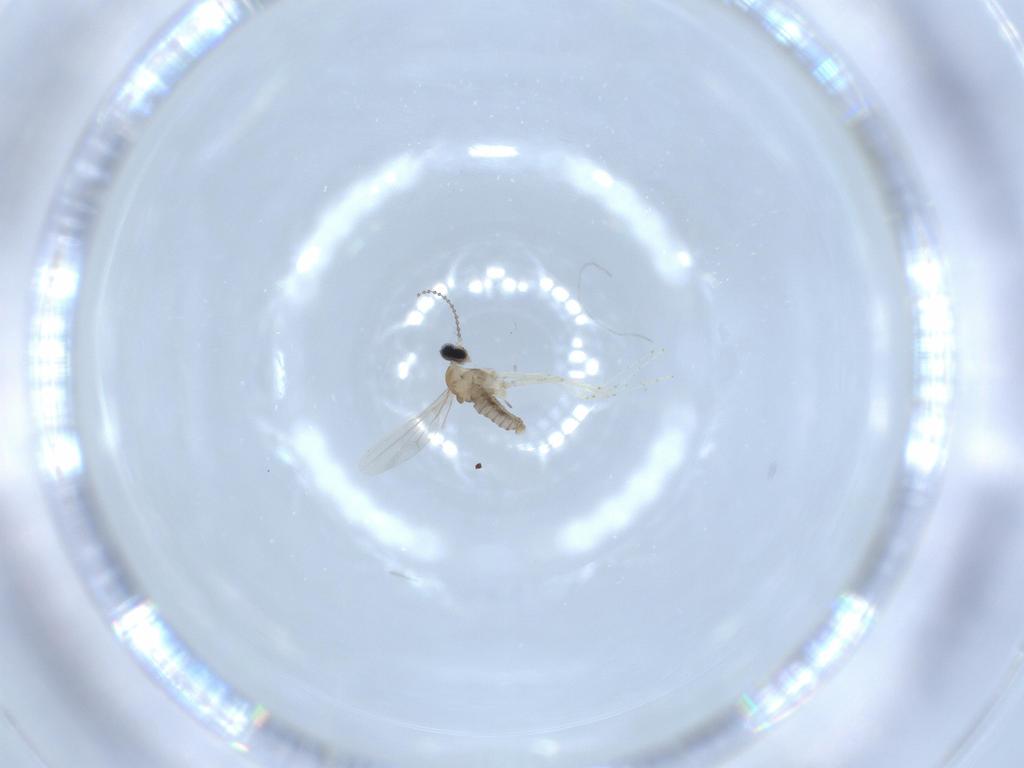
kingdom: Animalia
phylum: Arthropoda
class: Insecta
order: Diptera
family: Cecidomyiidae
